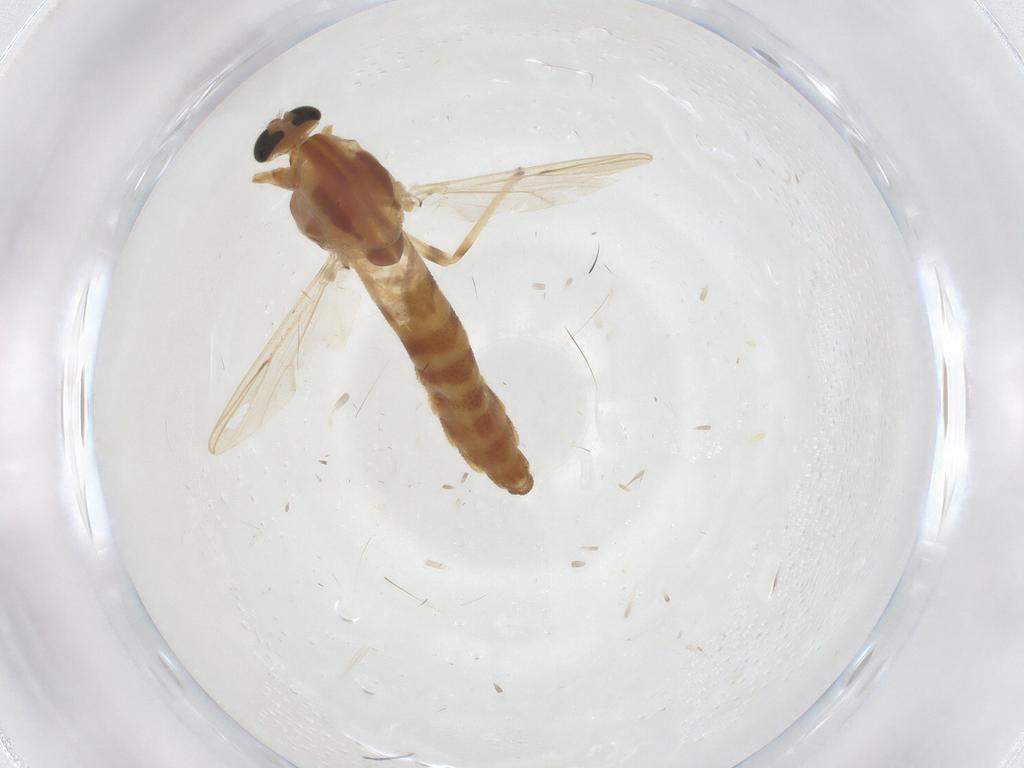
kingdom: Animalia
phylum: Arthropoda
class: Insecta
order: Diptera
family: Chironomidae
